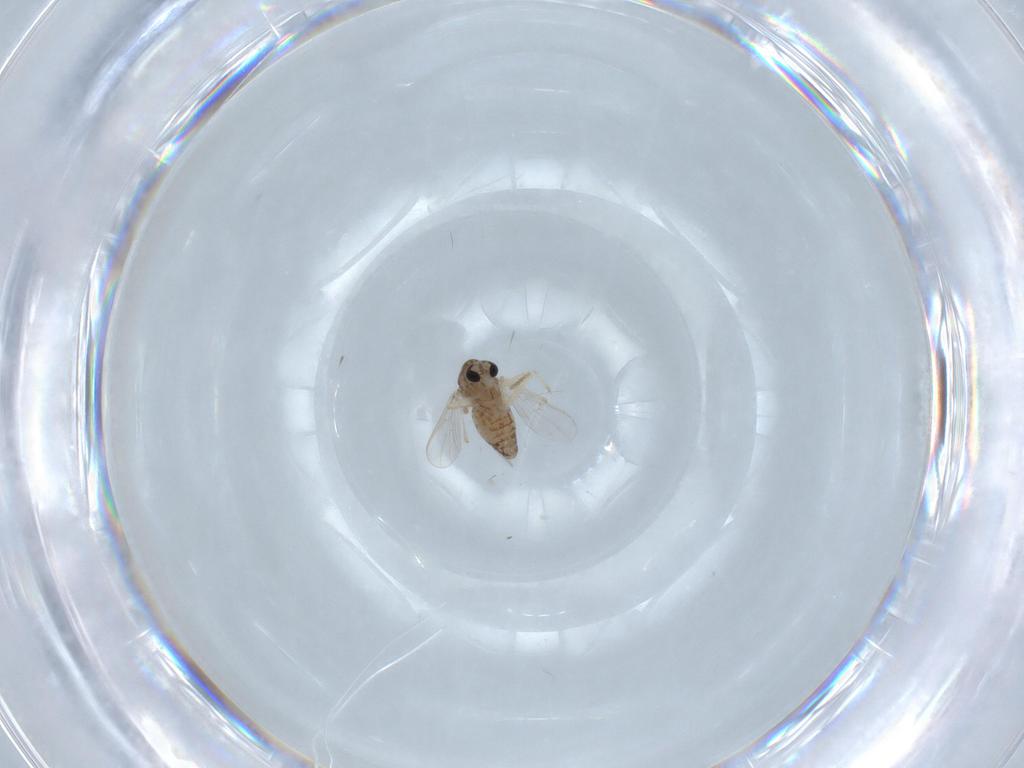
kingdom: Animalia
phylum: Arthropoda
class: Insecta
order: Diptera
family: Chironomidae
